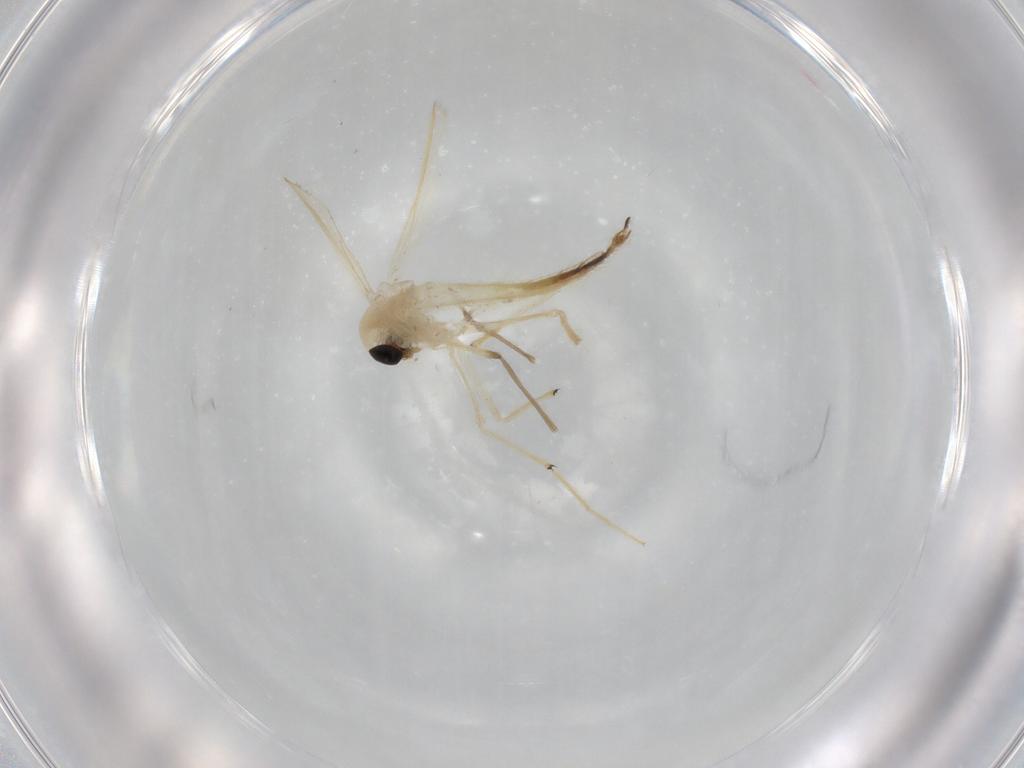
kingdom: Animalia
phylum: Arthropoda
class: Insecta
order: Diptera
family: Chironomidae
